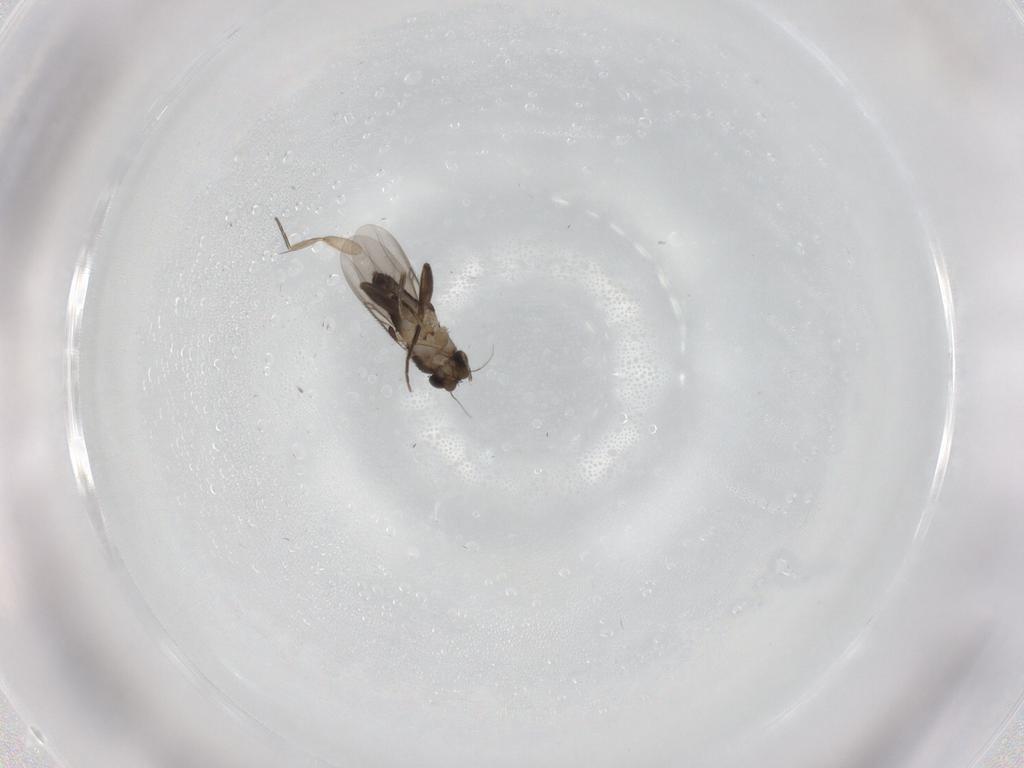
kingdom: Animalia
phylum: Arthropoda
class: Insecta
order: Diptera
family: Phoridae
